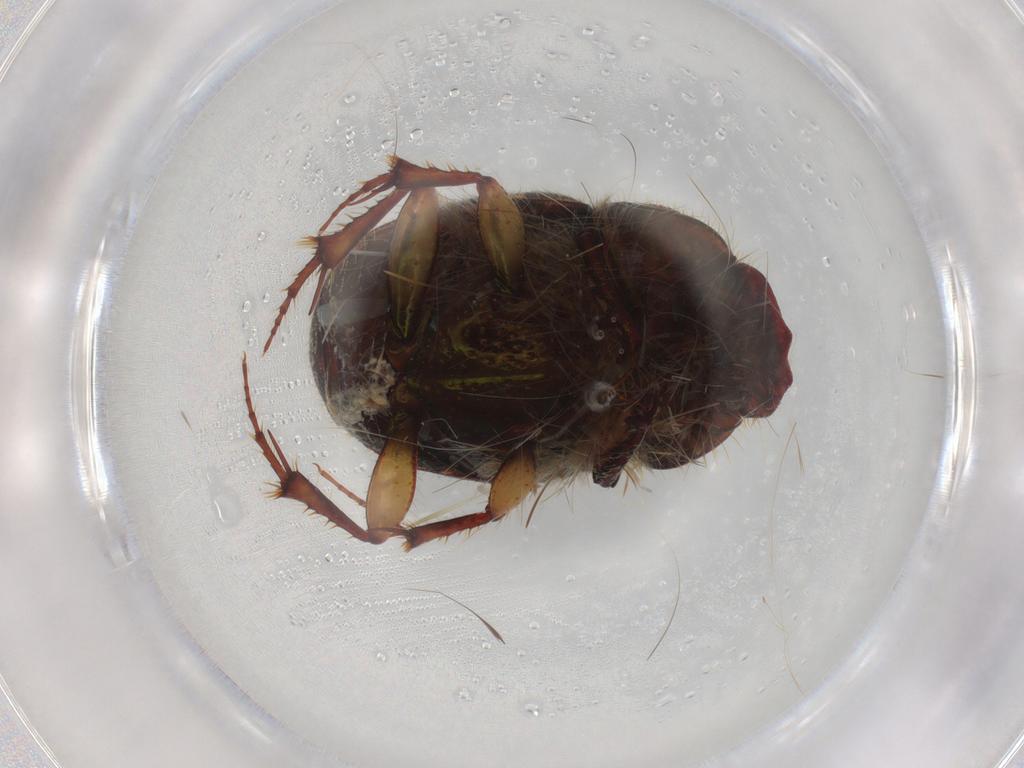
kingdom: Animalia
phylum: Arthropoda
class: Insecta
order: Coleoptera
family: Scarabaeidae
